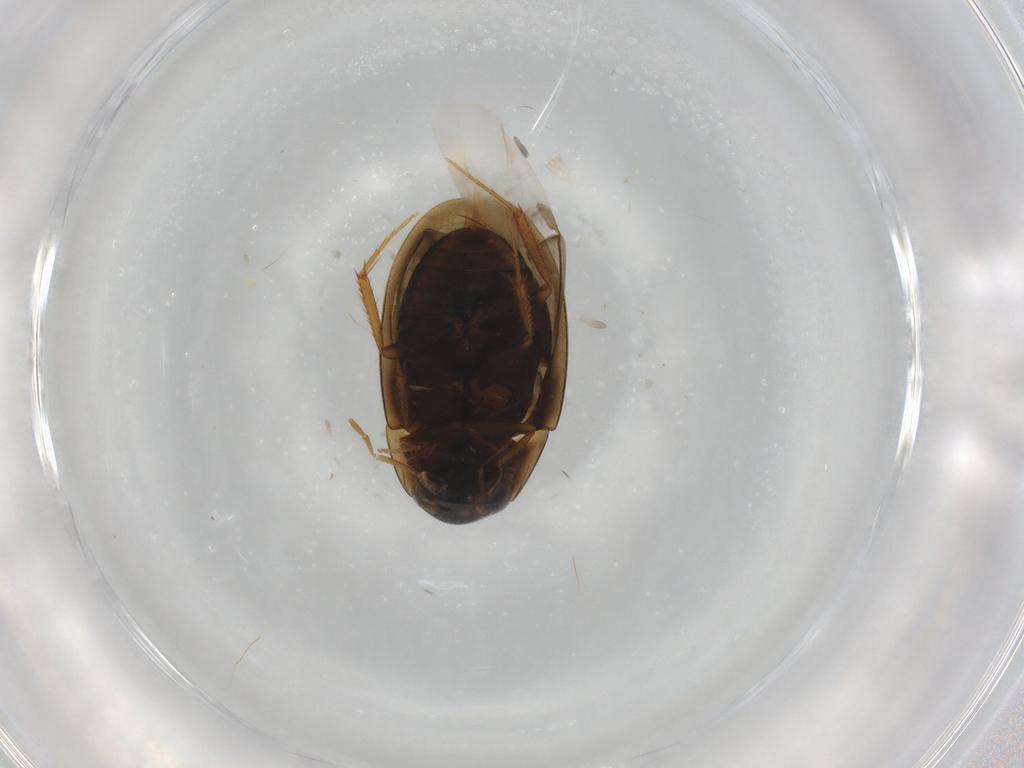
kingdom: Animalia
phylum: Arthropoda
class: Insecta
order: Coleoptera
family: Hydrophilidae
